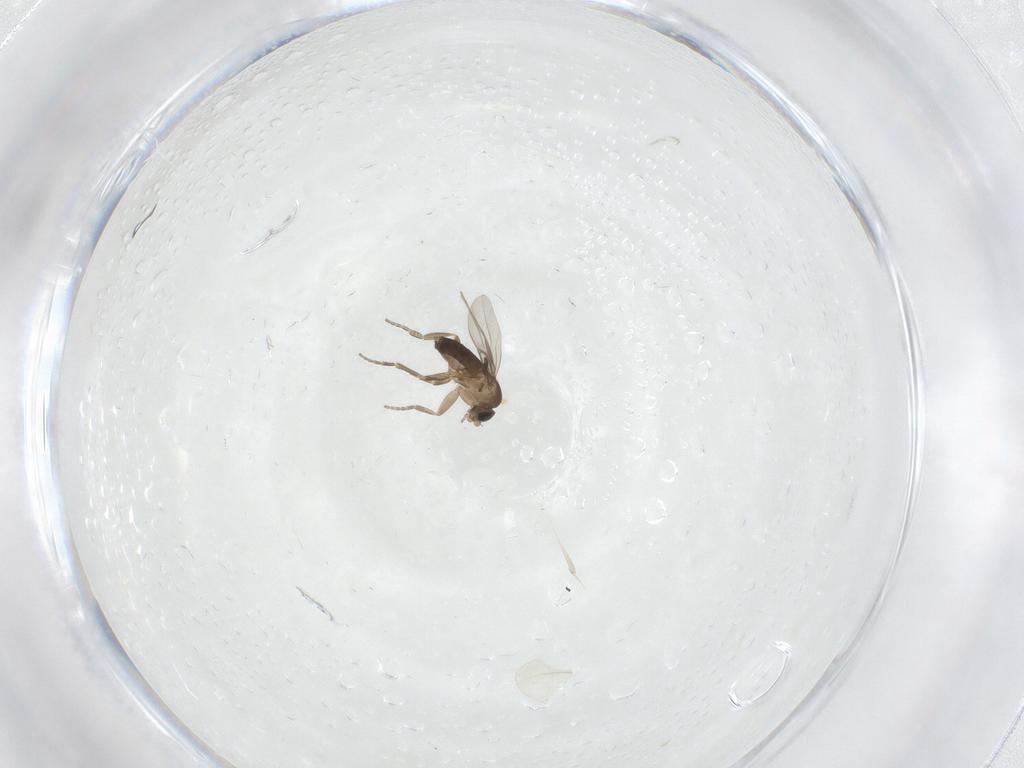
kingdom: Animalia
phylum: Arthropoda
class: Insecta
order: Diptera
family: Phoridae
